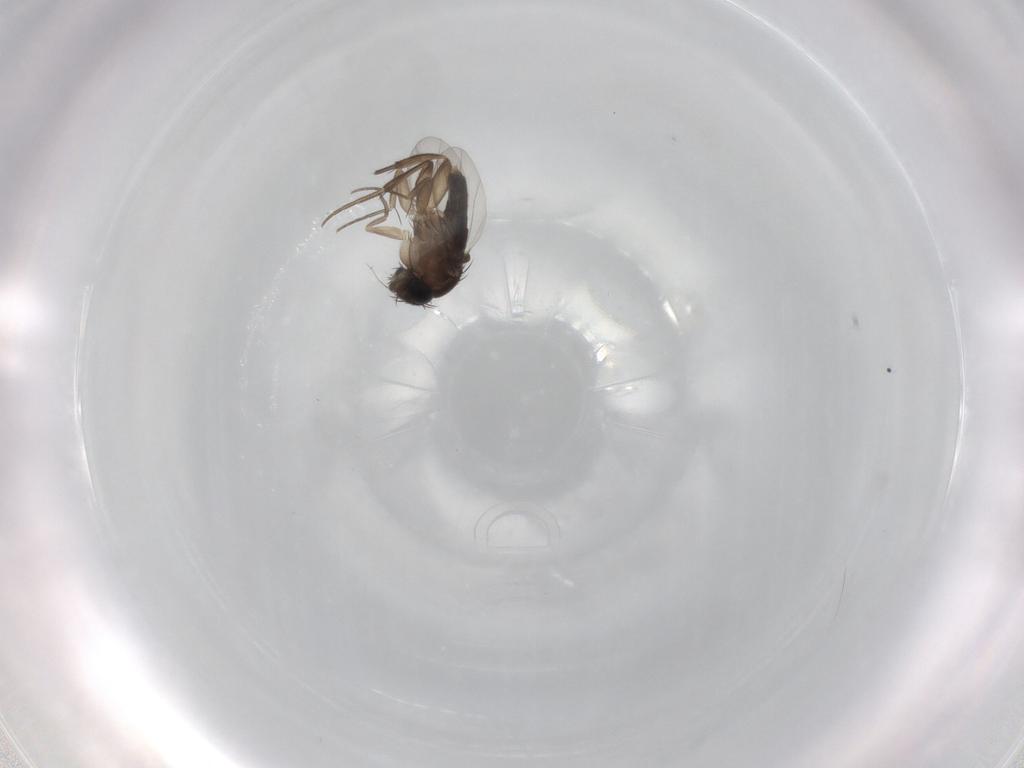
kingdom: Animalia
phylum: Arthropoda
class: Insecta
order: Diptera
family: Phoridae
